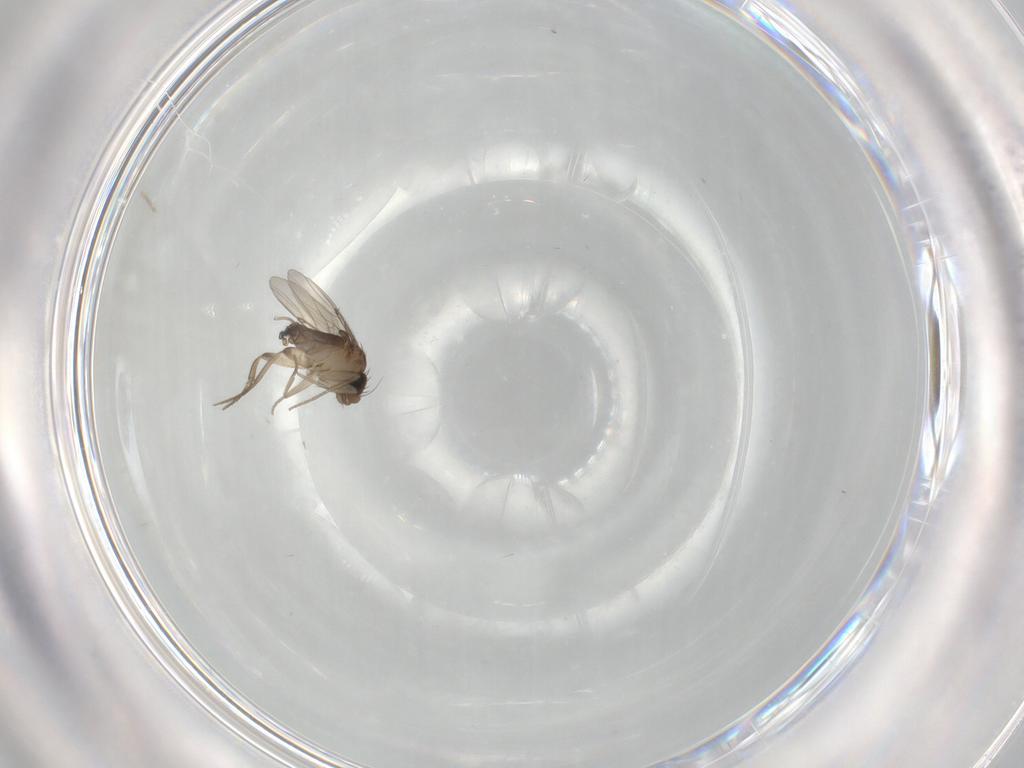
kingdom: Animalia
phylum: Arthropoda
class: Insecta
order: Diptera
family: Phoridae
